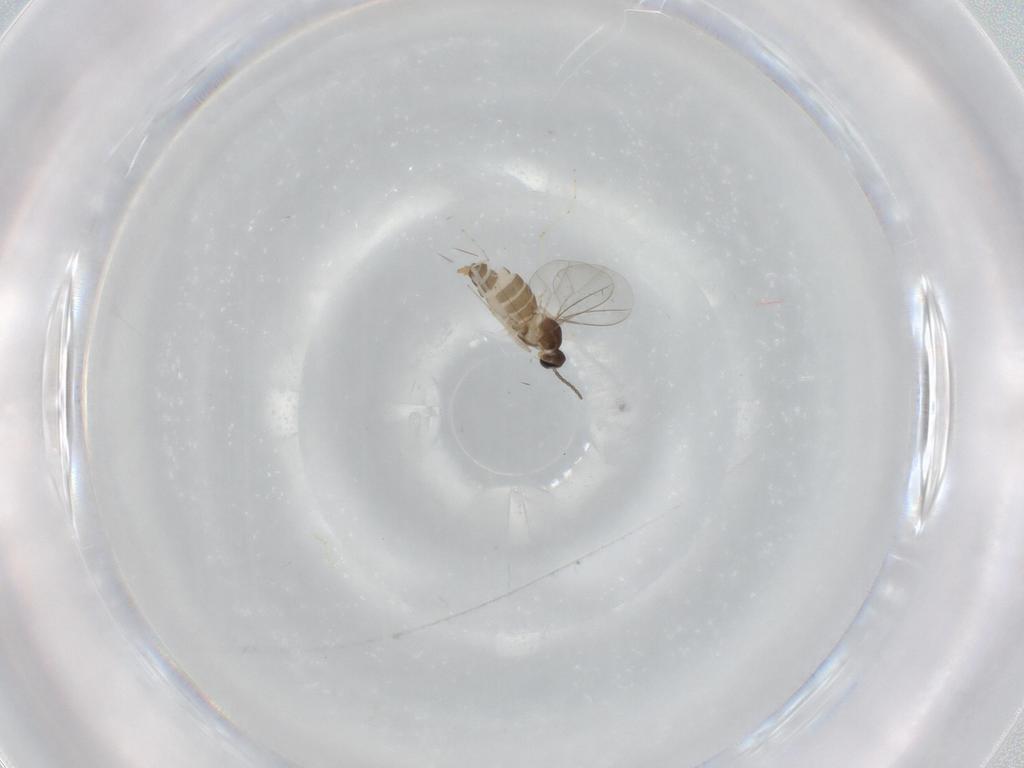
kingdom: Animalia
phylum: Arthropoda
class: Insecta
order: Diptera
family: Cecidomyiidae
